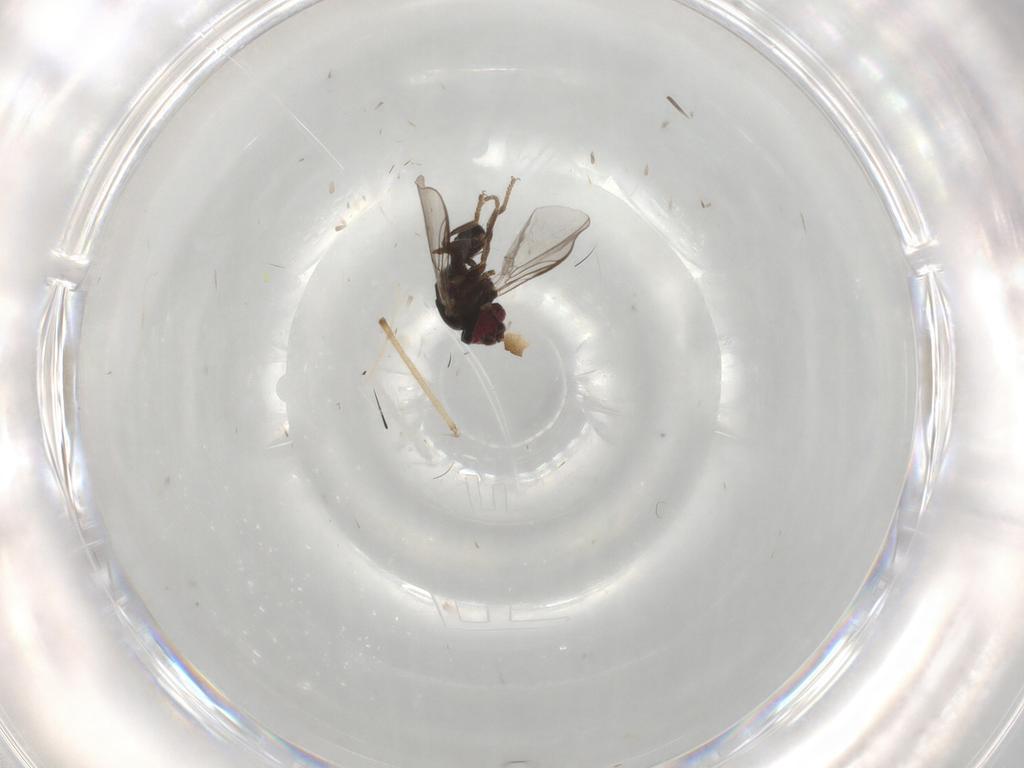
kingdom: Animalia
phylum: Arthropoda
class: Insecta
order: Diptera
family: Pipunculidae
